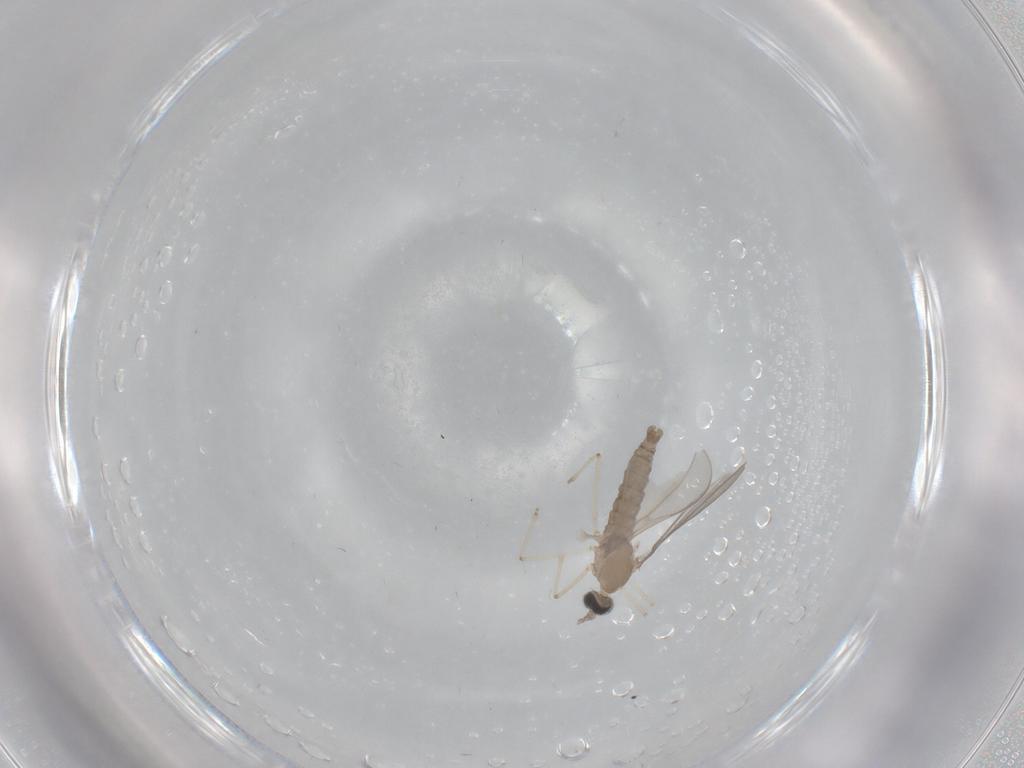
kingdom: Animalia
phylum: Arthropoda
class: Insecta
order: Diptera
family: Cecidomyiidae
